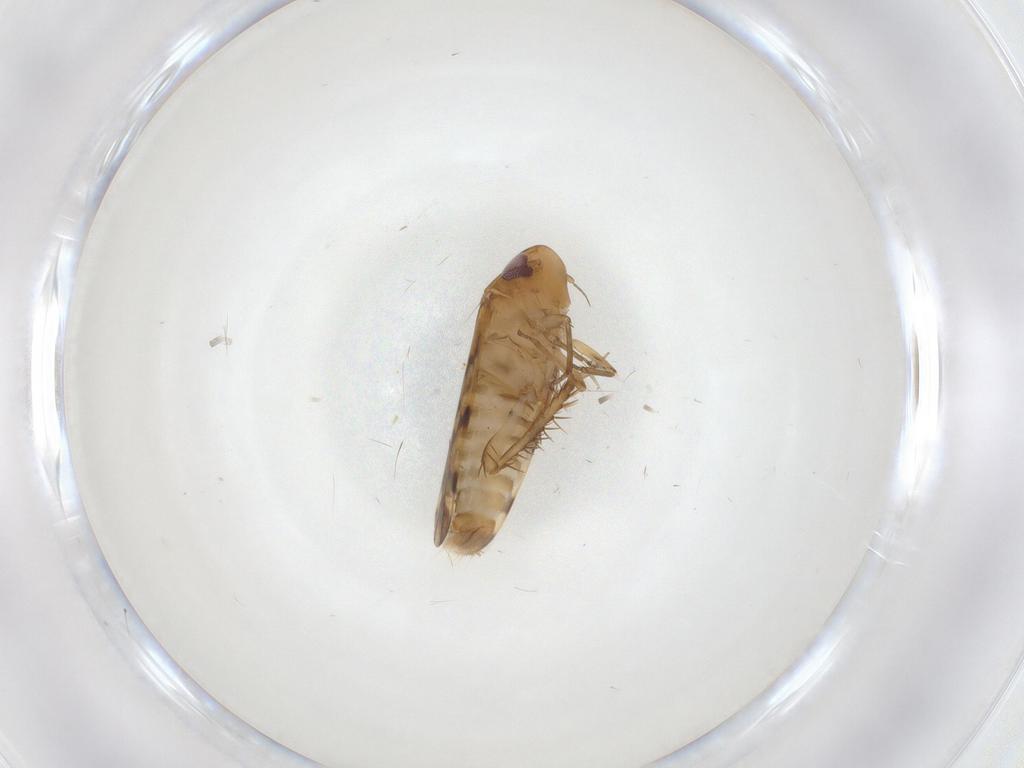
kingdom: Animalia
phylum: Arthropoda
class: Insecta
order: Hemiptera
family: Cicadellidae
